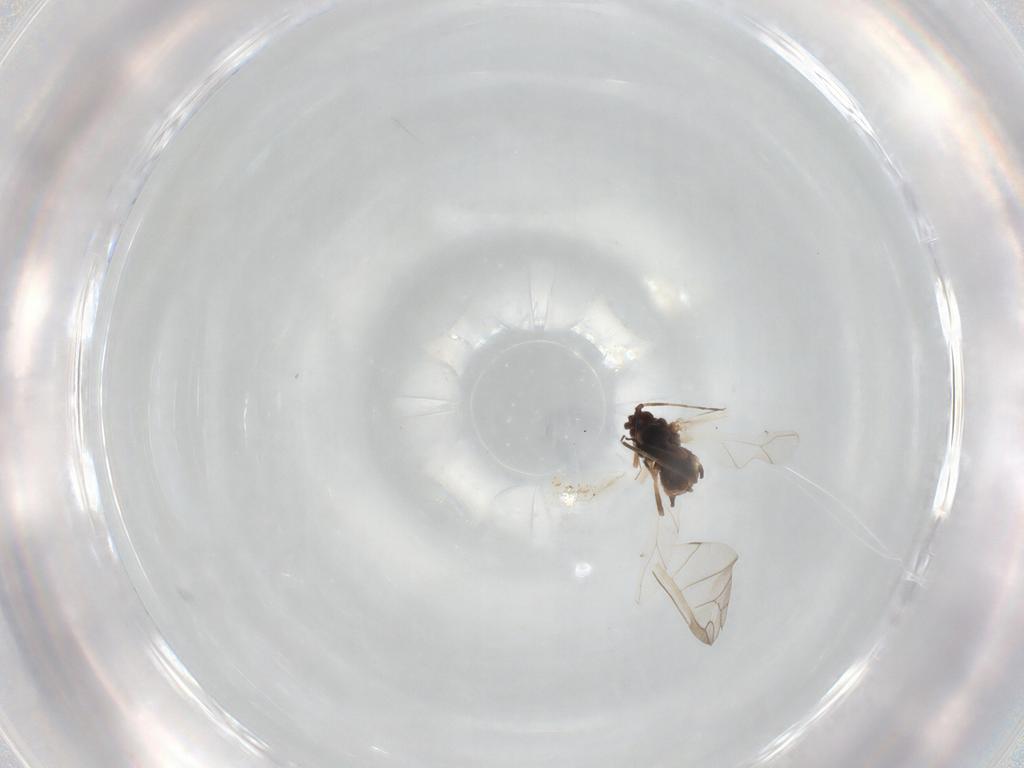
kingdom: Animalia
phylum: Arthropoda
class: Insecta
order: Hemiptera
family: Aphididae
